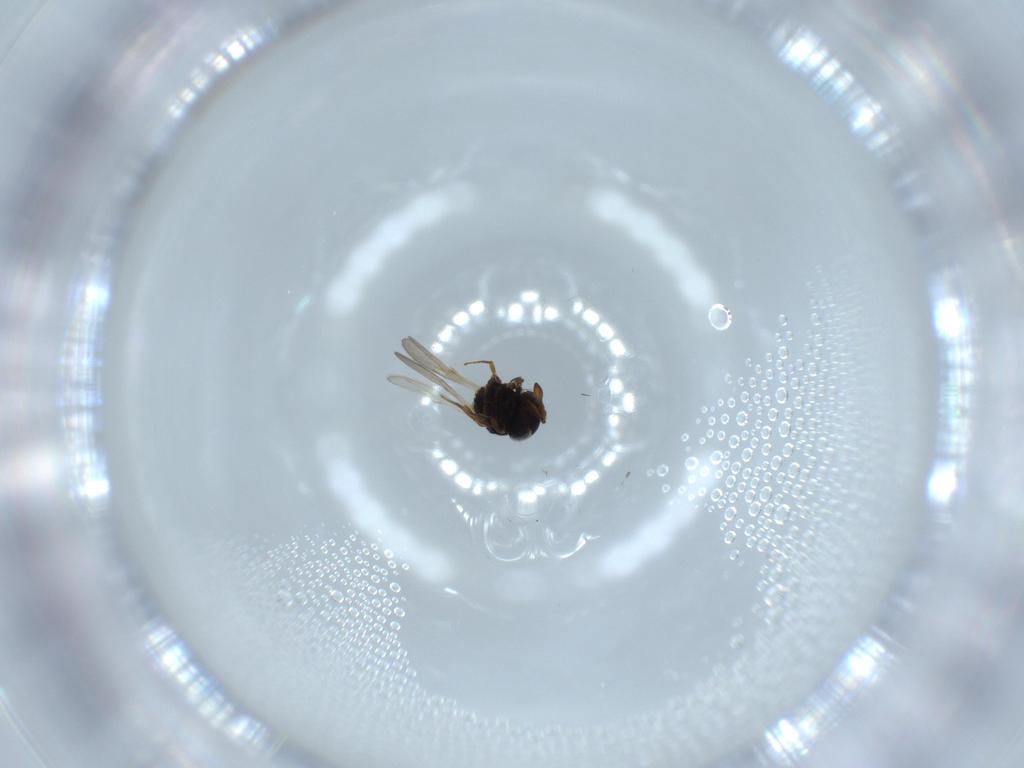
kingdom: Animalia
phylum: Arthropoda
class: Insecta
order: Hymenoptera
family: Scelionidae
